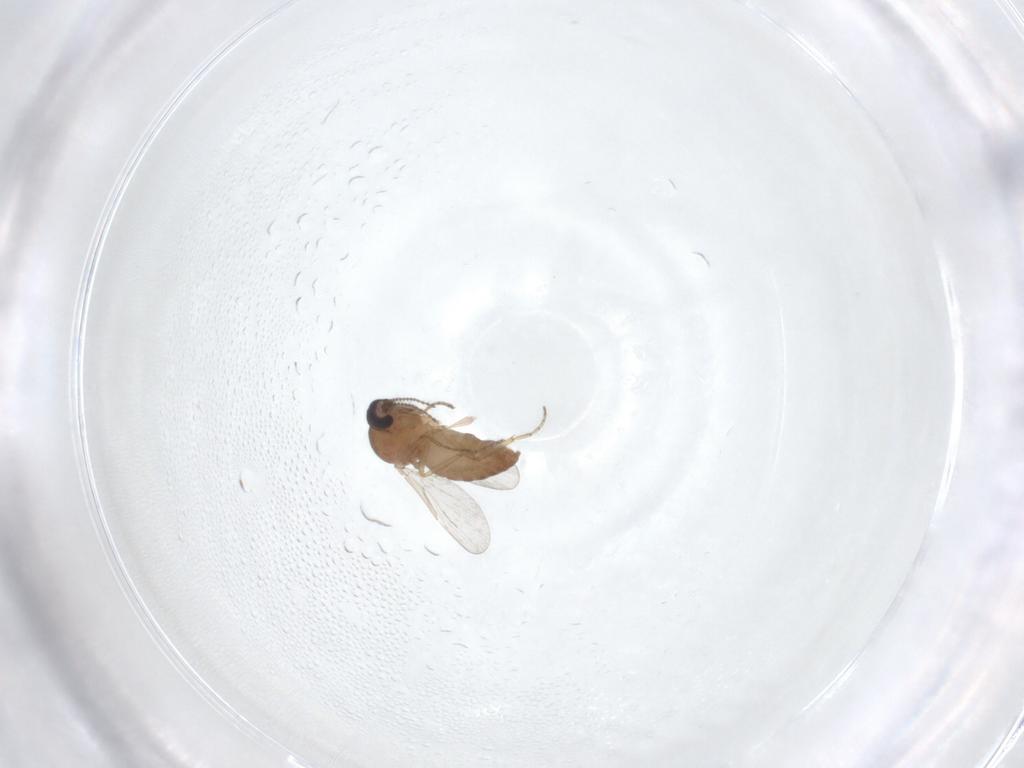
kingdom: Animalia
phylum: Arthropoda
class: Insecta
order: Diptera
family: Ceratopogonidae
